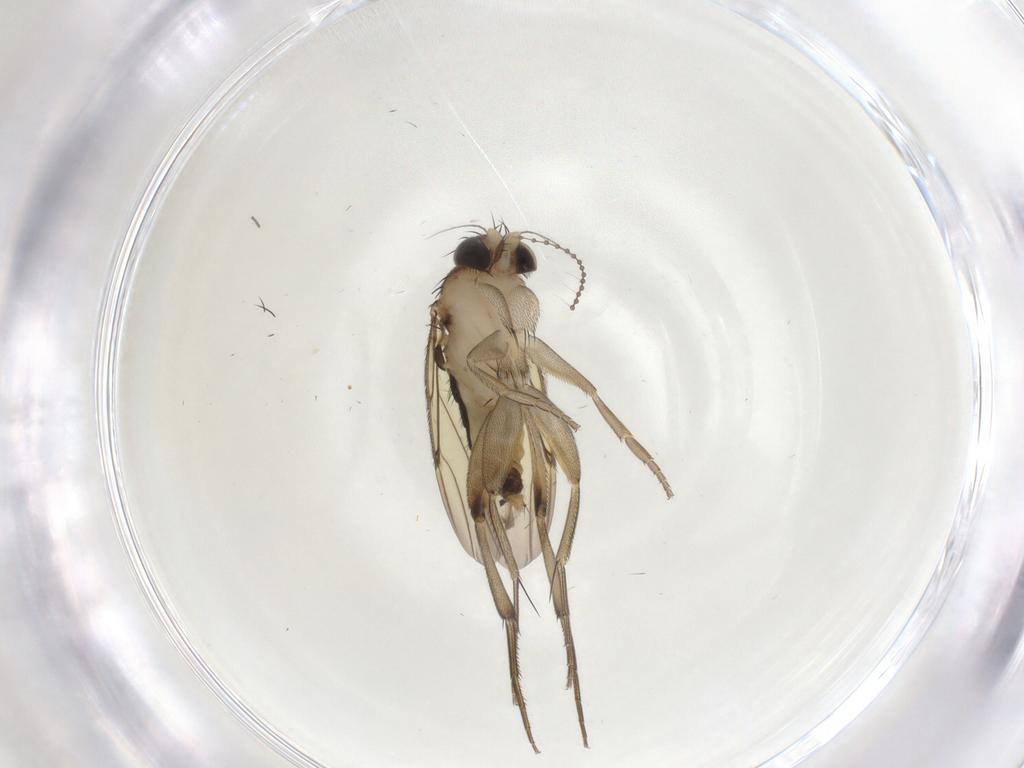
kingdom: Animalia
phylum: Arthropoda
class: Insecta
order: Diptera
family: Phoridae
